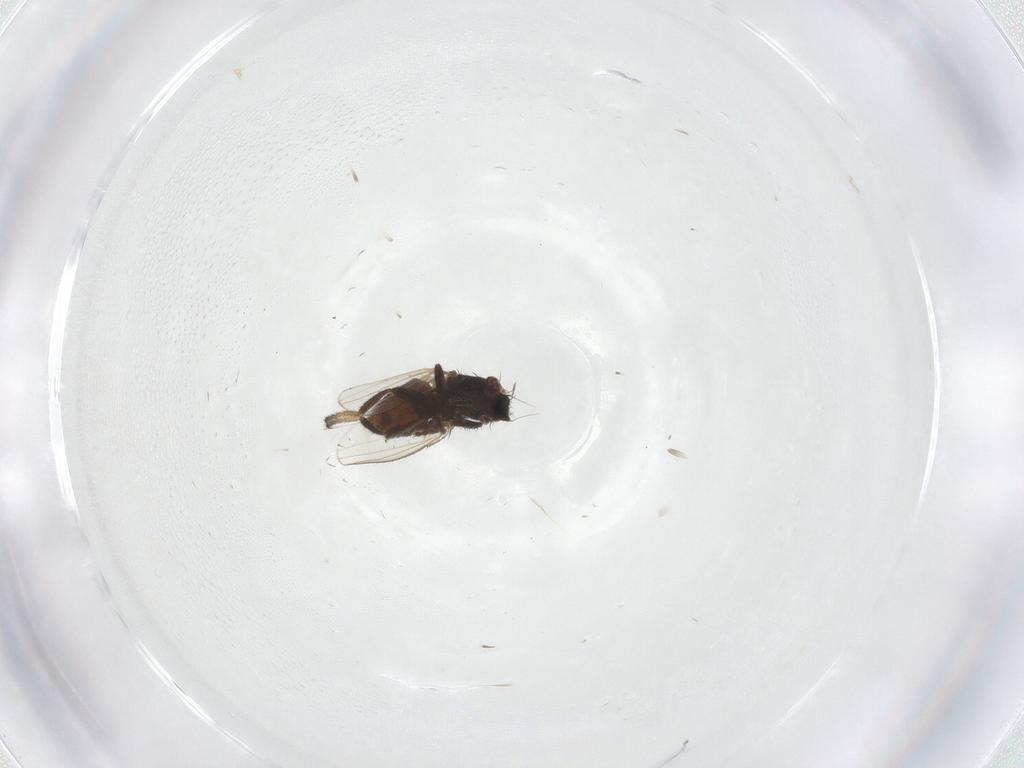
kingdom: Animalia
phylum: Arthropoda
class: Insecta
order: Diptera
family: Milichiidae
